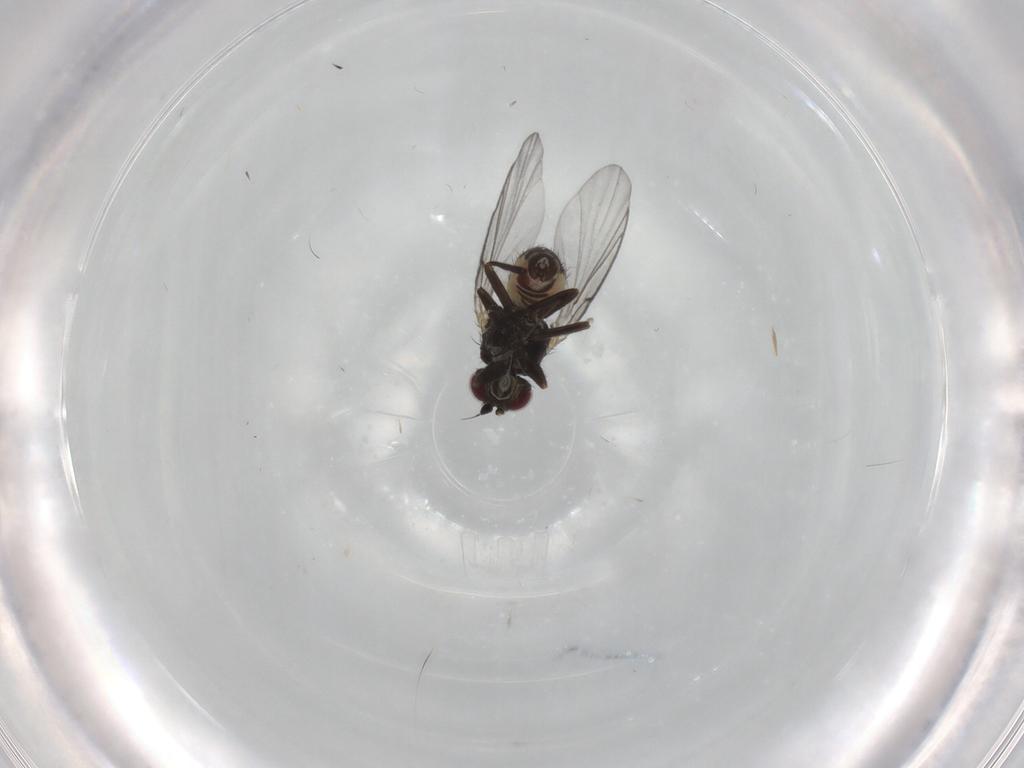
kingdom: Animalia
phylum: Arthropoda
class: Insecta
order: Diptera
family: Agromyzidae
